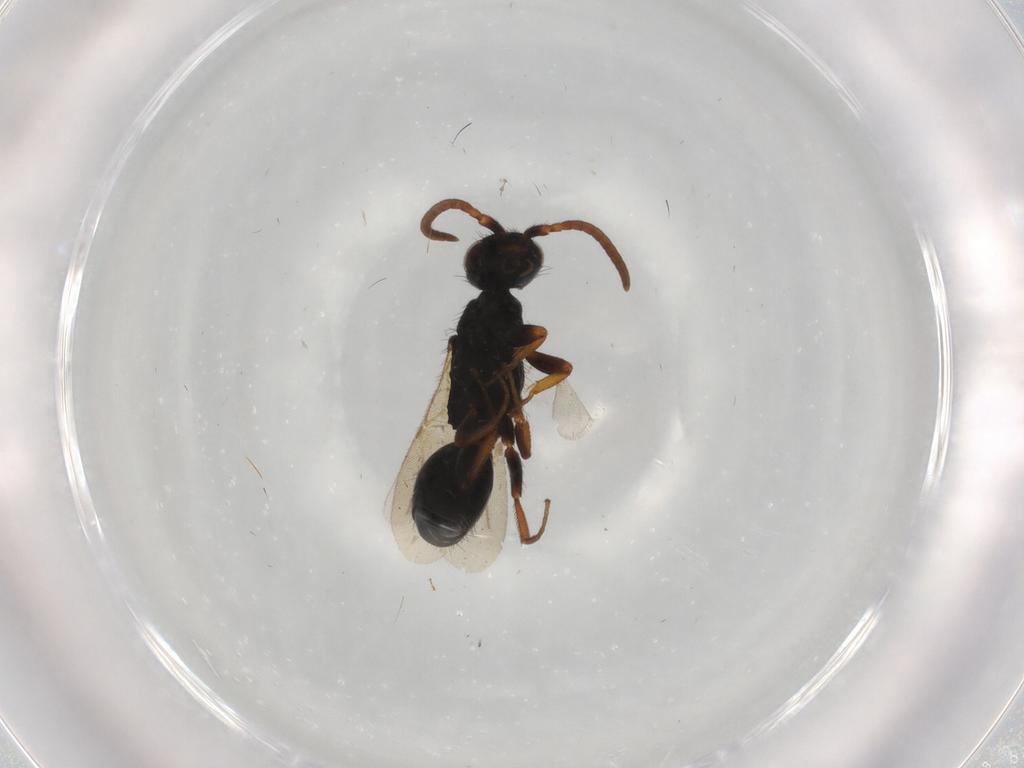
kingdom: Animalia
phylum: Arthropoda
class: Insecta
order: Hymenoptera
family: Bethylidae
